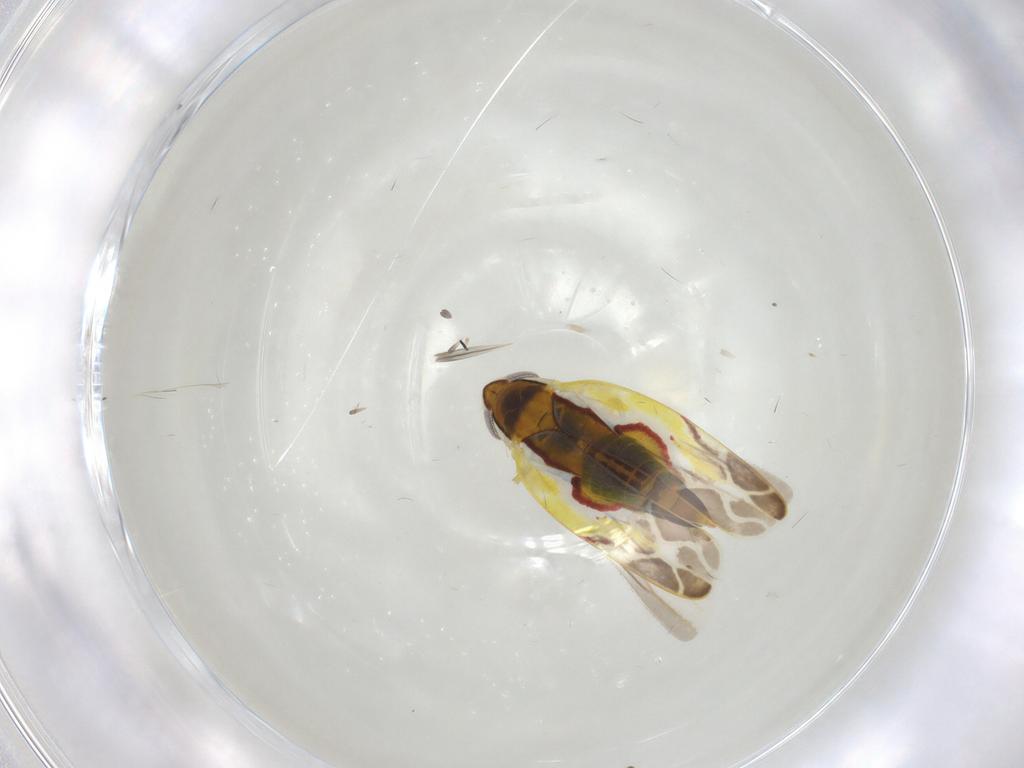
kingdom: Animalia
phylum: Arthropoda
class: Insecta
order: Hemiptera
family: Cicadellidae
